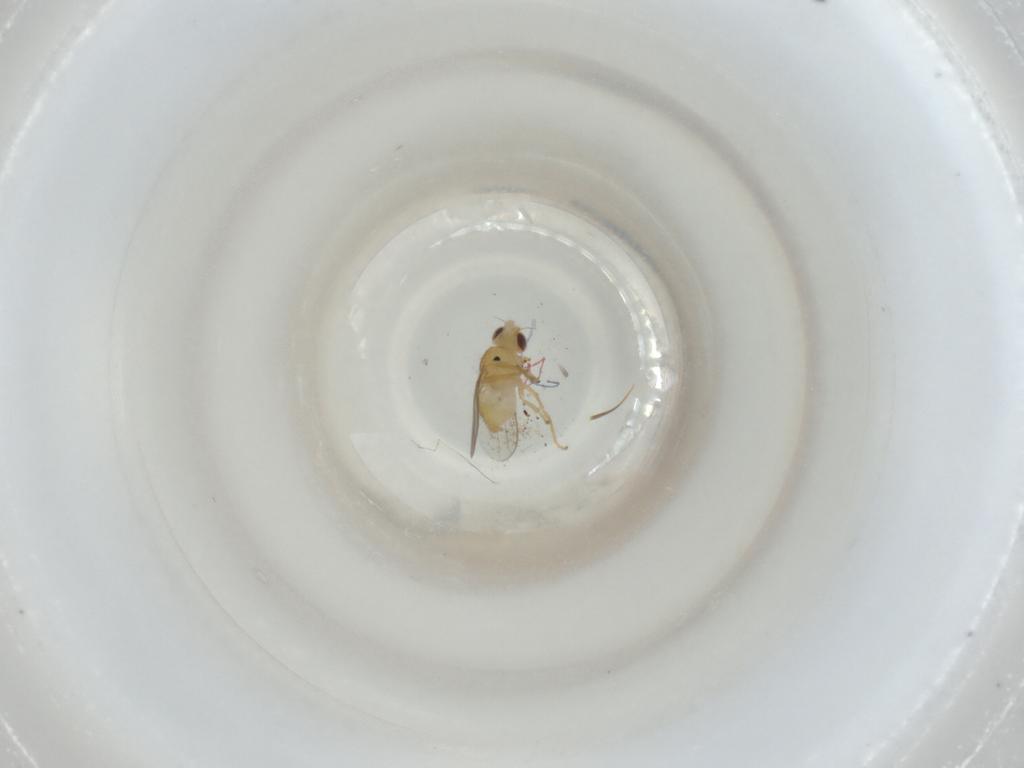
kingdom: Animalia
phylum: Arthropoda
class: Insecta
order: Diptera
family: Chloropidae
